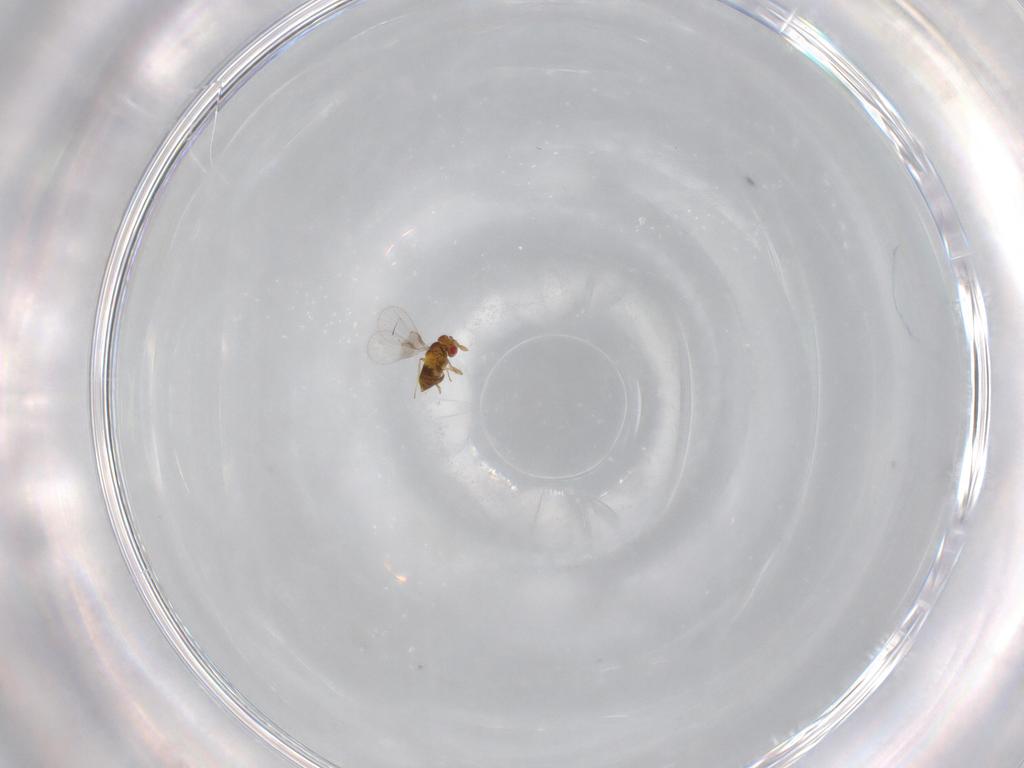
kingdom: Animalia
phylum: Arthropoda
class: Insecta
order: Hymenoptera
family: Trichogrammatidae
